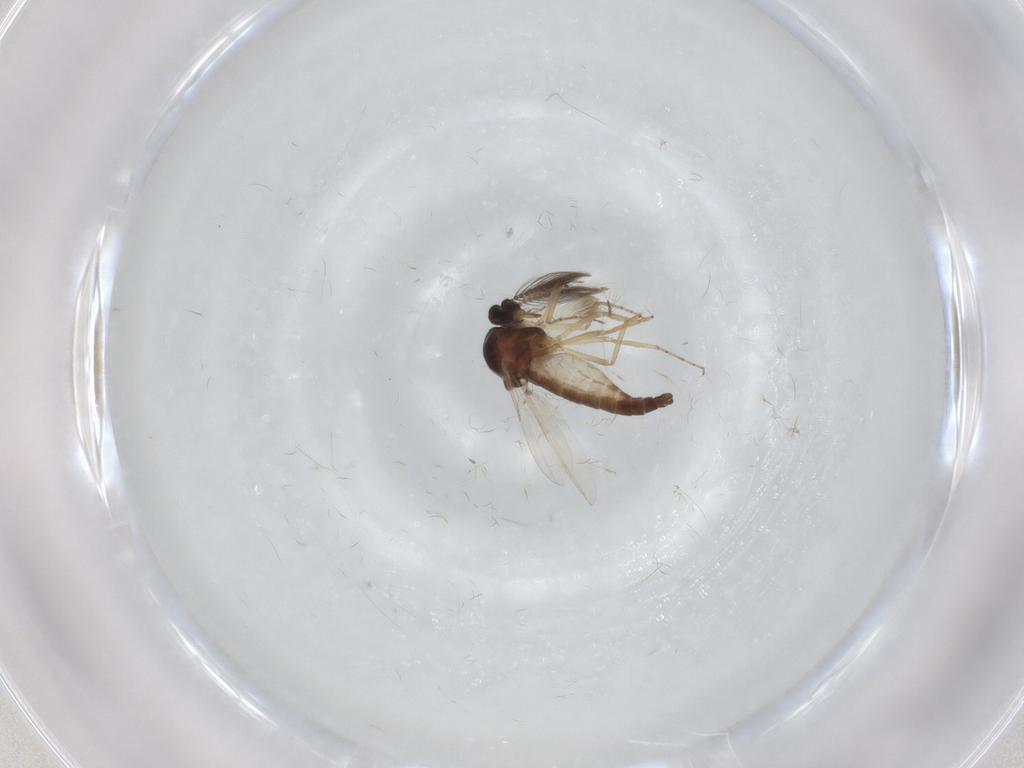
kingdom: Animalia
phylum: Arthropoda
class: Insecta
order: Diptera
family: Ceratopogonidae
